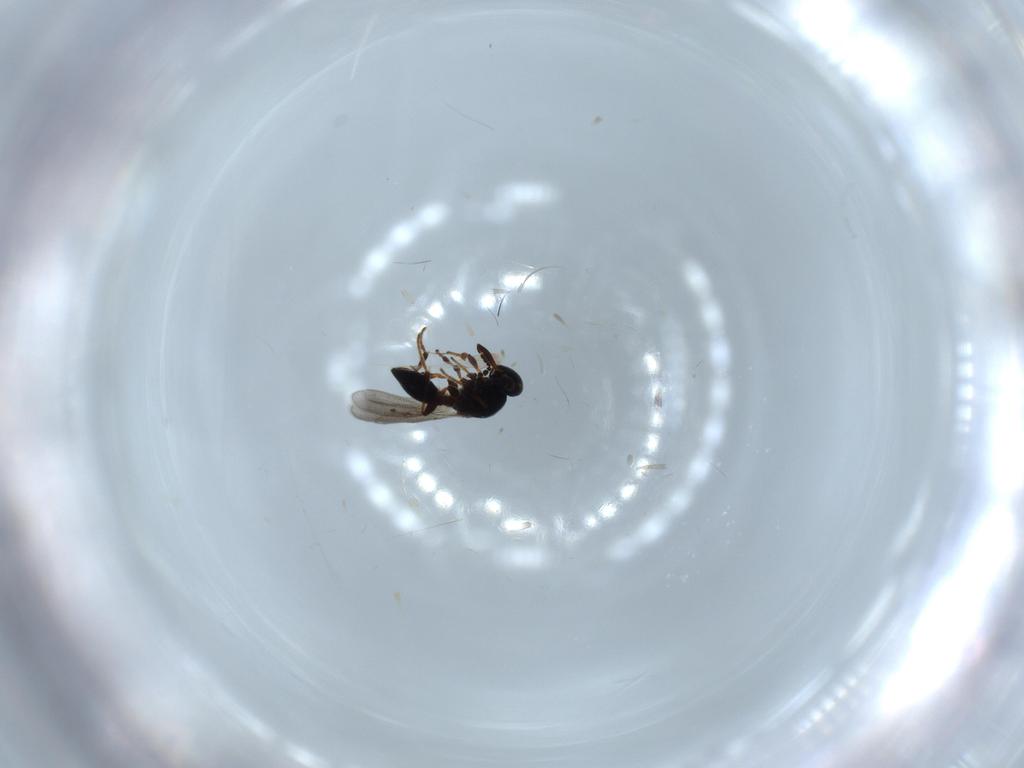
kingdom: Animalia
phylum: Arthropoda
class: Insecta
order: Hymenoptera
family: Platygastridae
